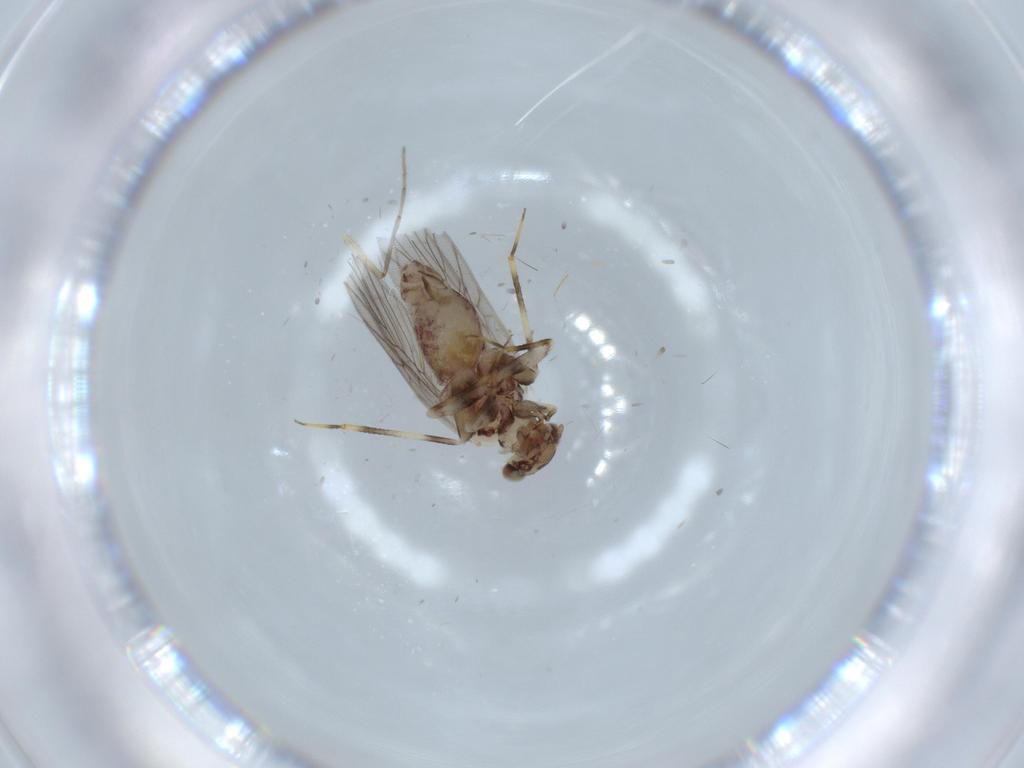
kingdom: Animalia
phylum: Arthropoda
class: Insecta
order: Psocodea
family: Lepidopsocidae
